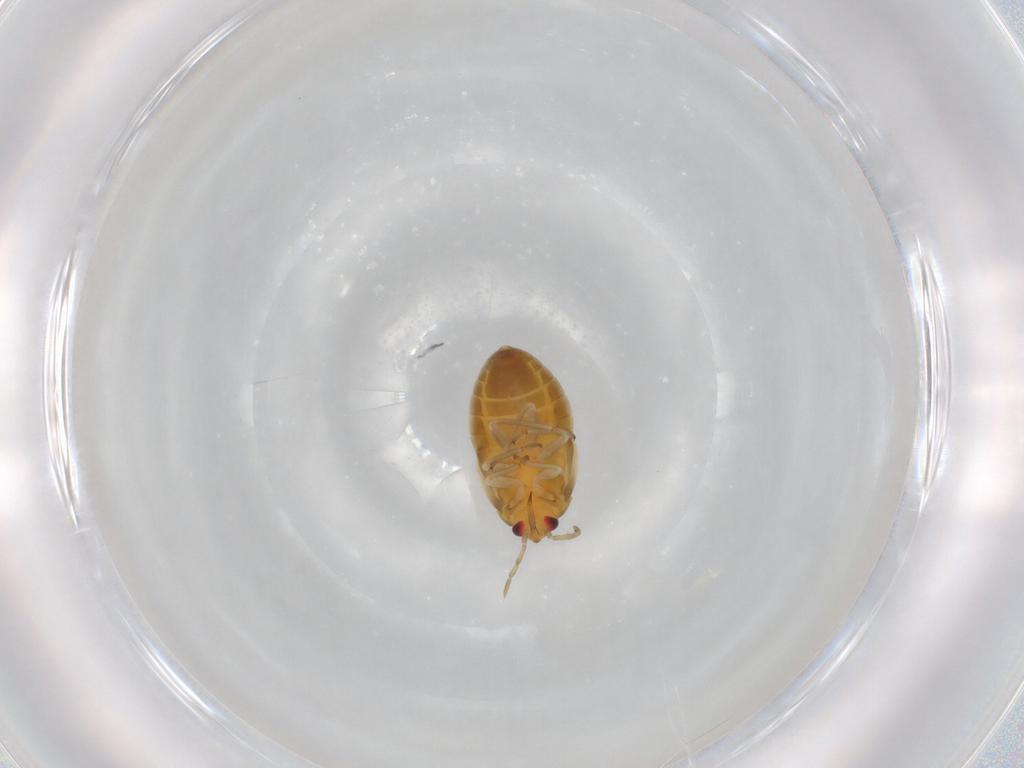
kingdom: Animalia
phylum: Arthropoda
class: Insecta
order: Hemiptera
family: Anthocoridae
